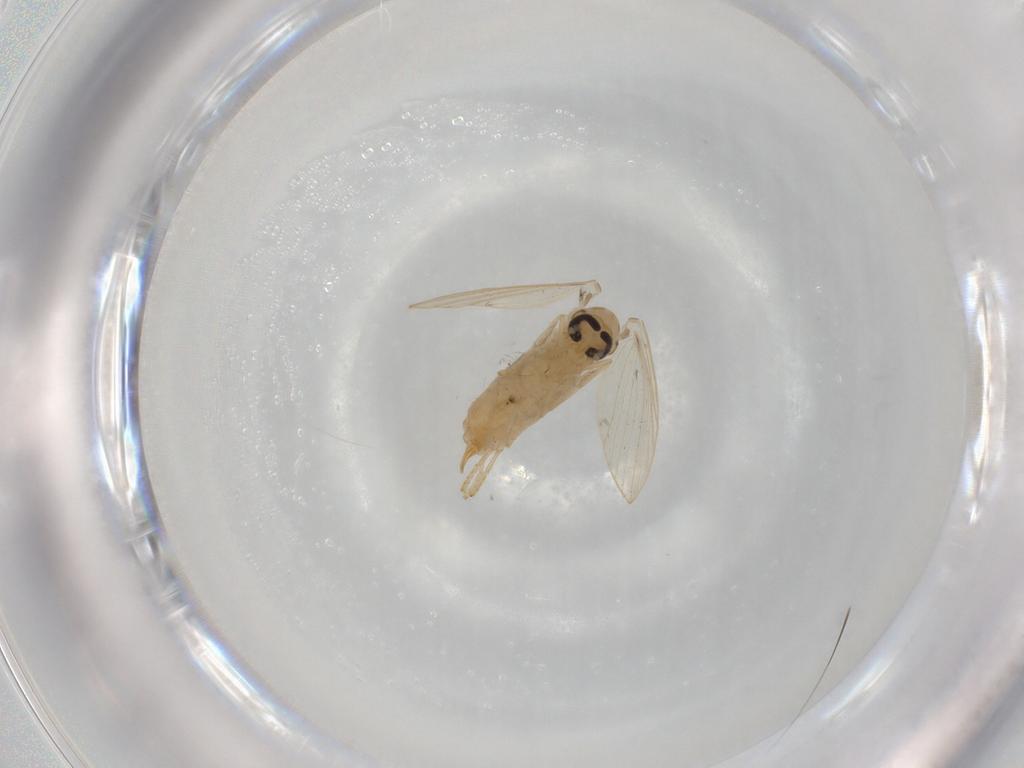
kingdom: Animalia
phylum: Arthropoda
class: Insecta
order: Diptera
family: Psychodidae
